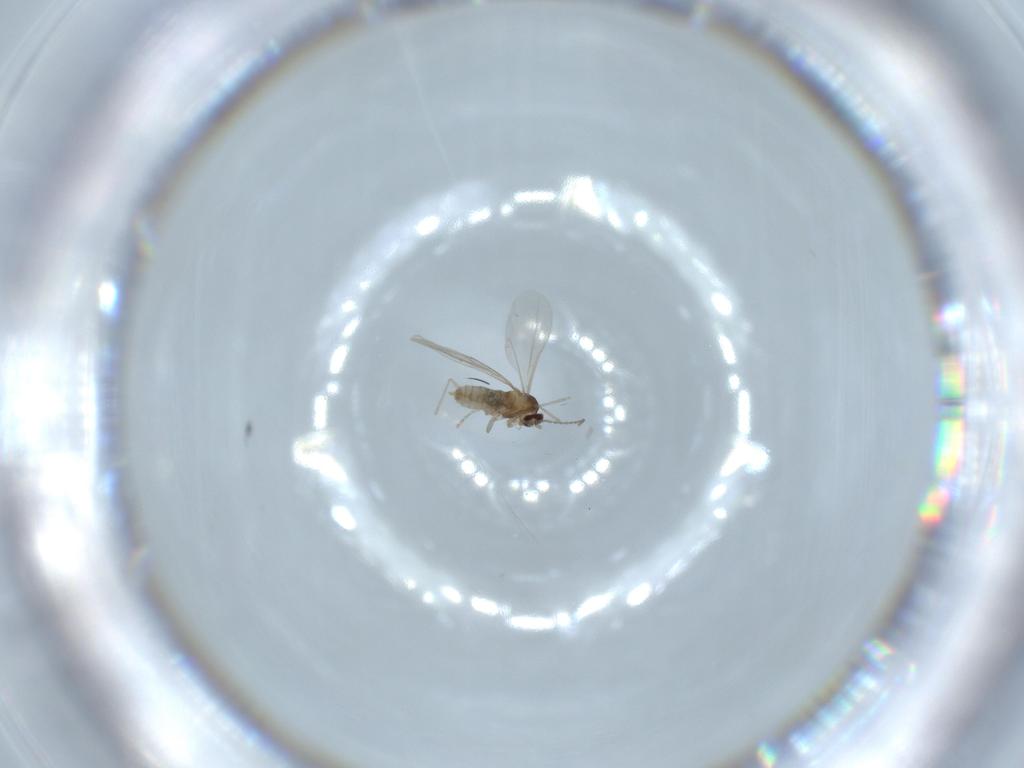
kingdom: Animalia
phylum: Arthropoda
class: Insecta
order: Diptera
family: Cecidomyiidae
